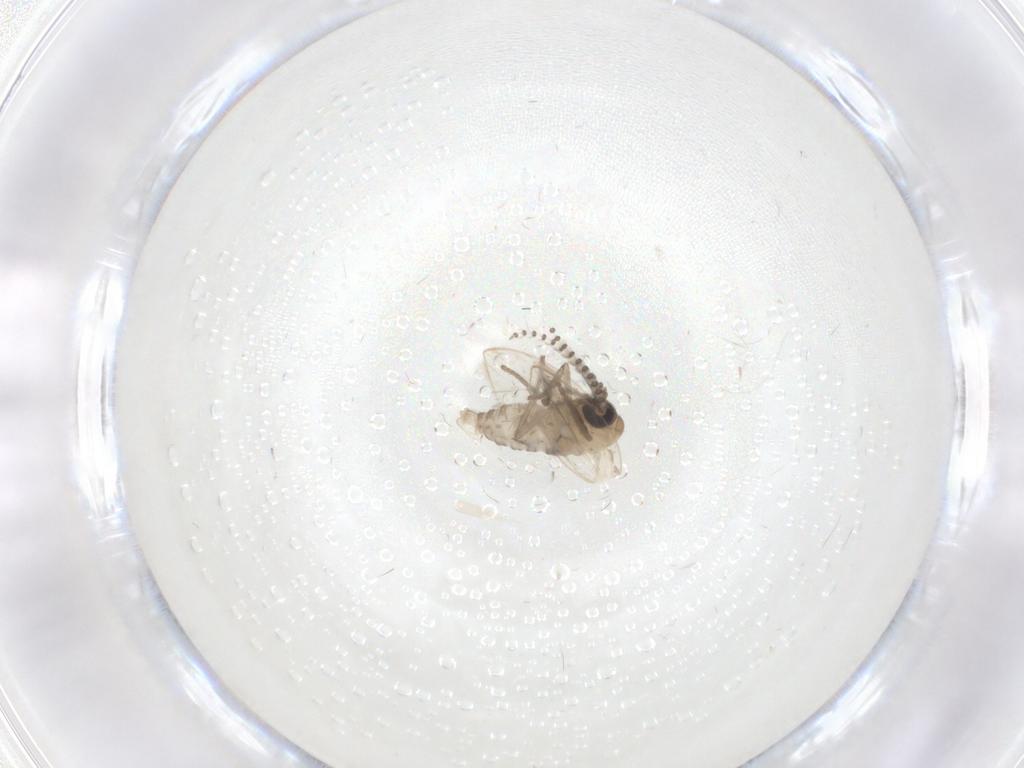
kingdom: Animalia
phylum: Arthropoda
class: Insecta
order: Diptera
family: Psychodidae
